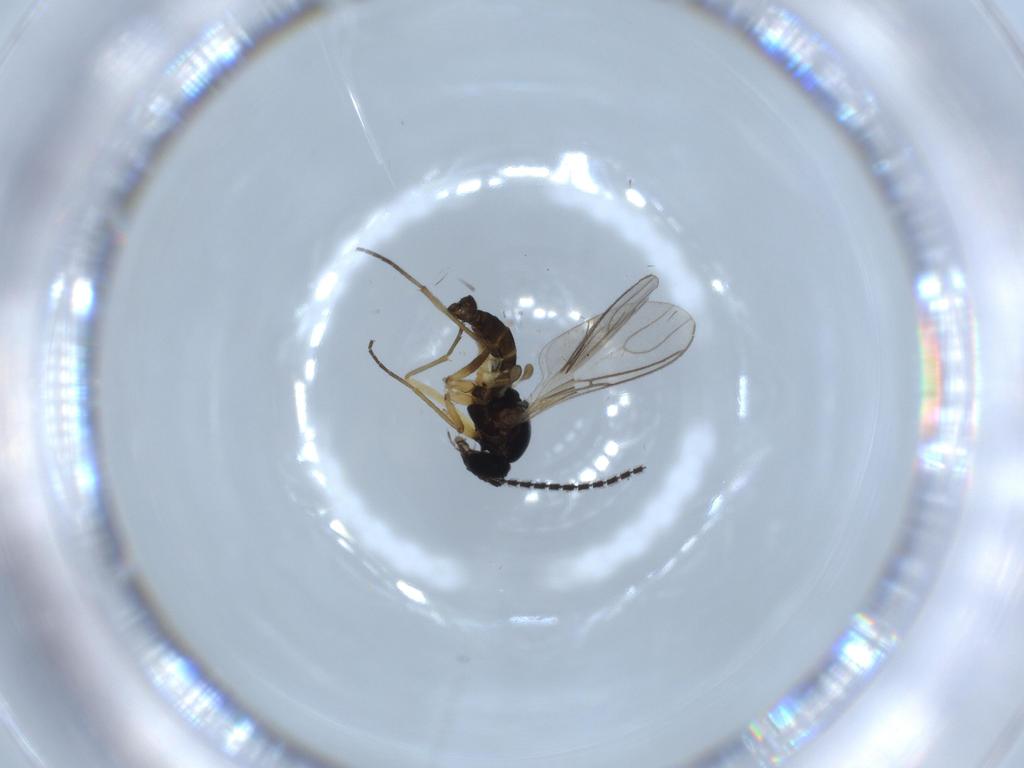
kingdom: Animalia
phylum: Arthropoda
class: Insecta
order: Diptera
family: Sciaridae
